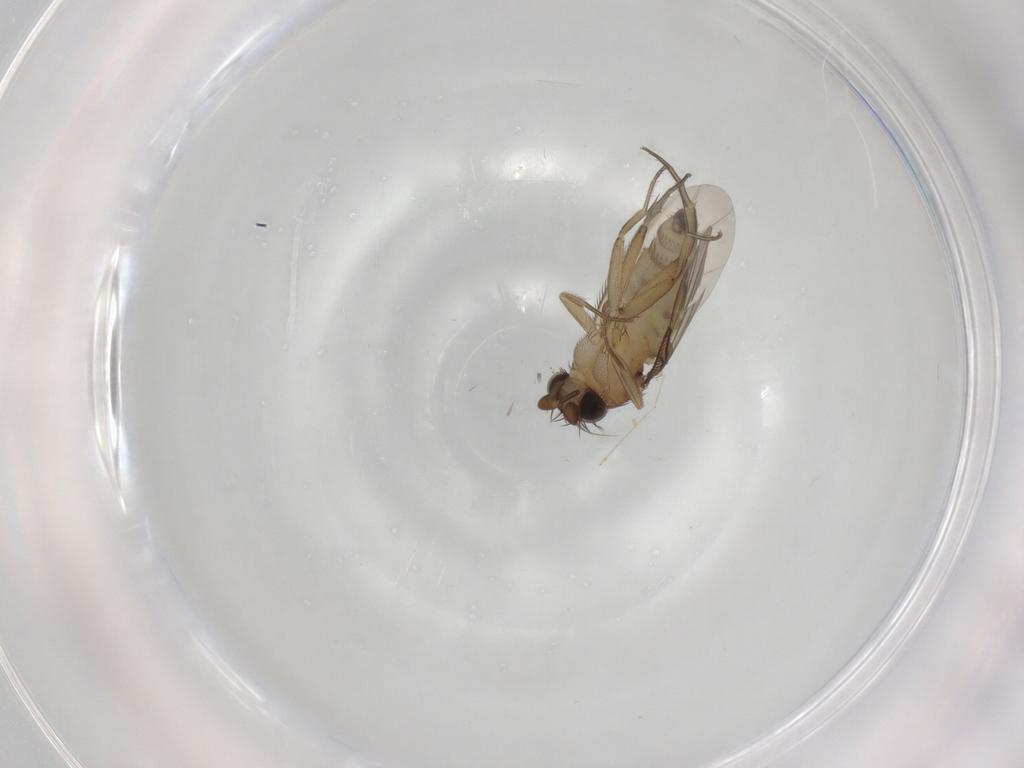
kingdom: Animalia
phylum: Arthropoda
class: Insecta
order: Diptera
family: Phoridae
